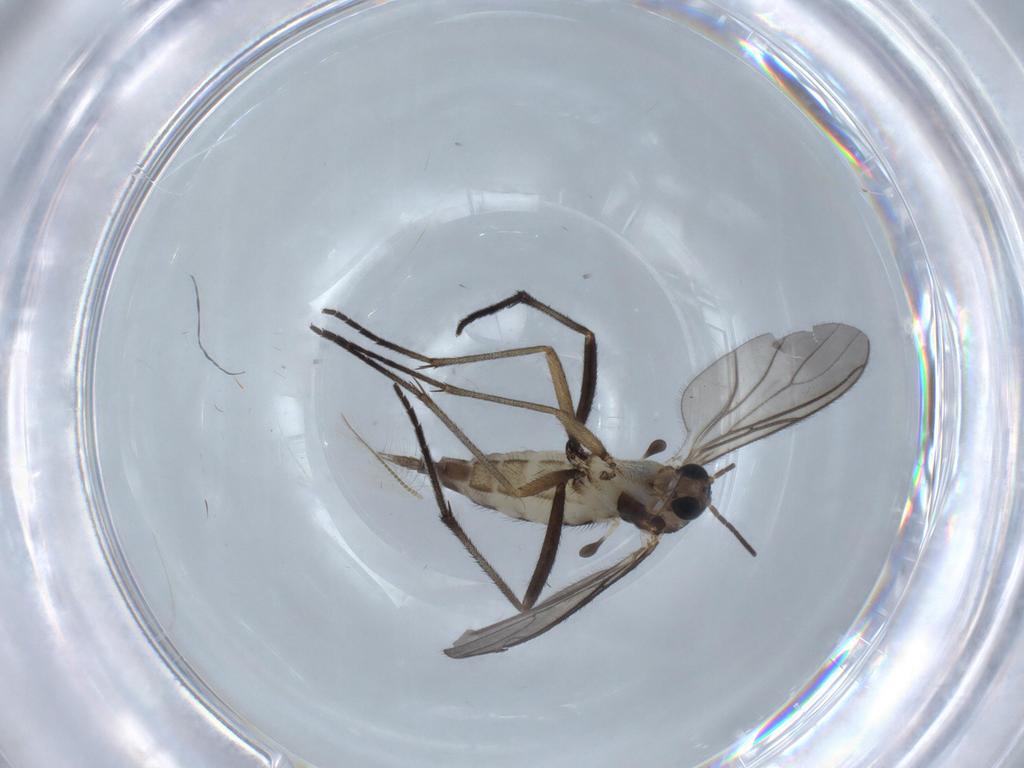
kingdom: Animalia
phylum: Arthropoda
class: Insecta
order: Diptera
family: Sciaridae
